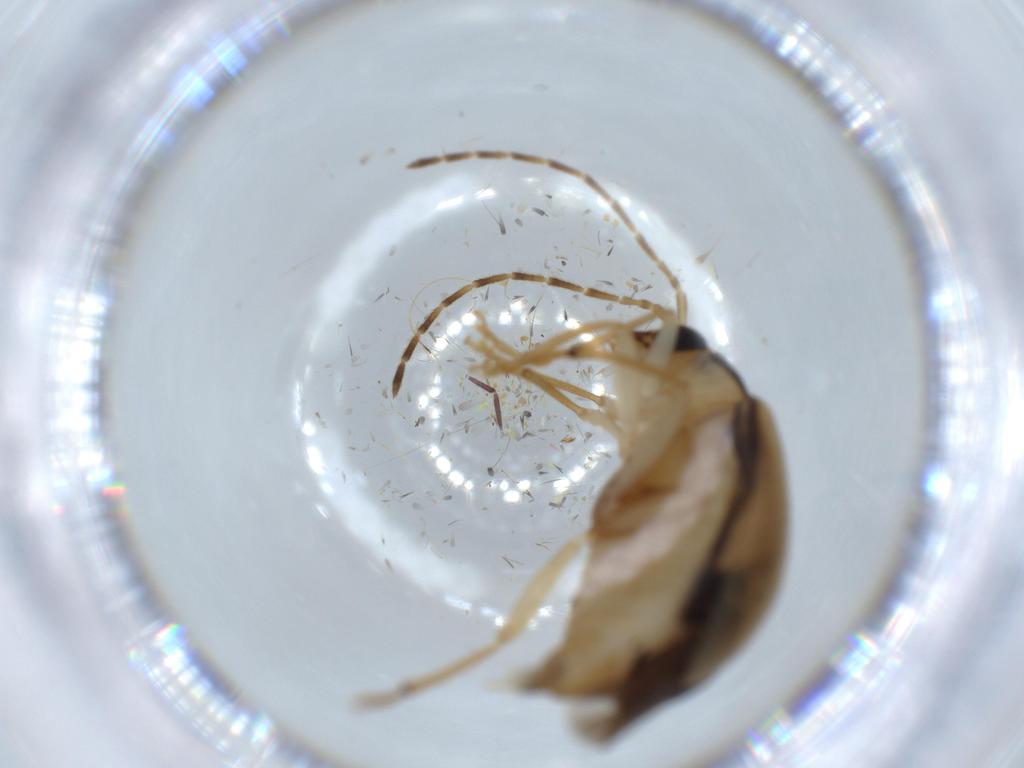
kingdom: Animalia
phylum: Arthropoda
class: Insecta
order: Coleoptera
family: Chrysomelidae
